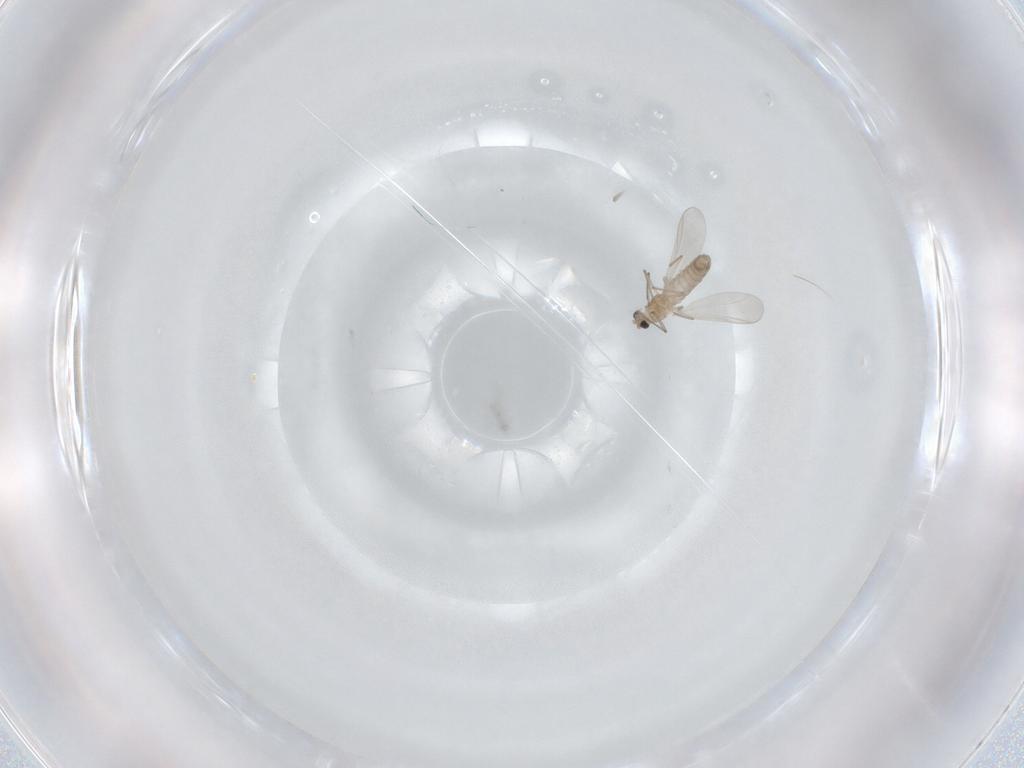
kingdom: Animalia
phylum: Arthropoda
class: Insecta
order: Diptera
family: Chironomidae
